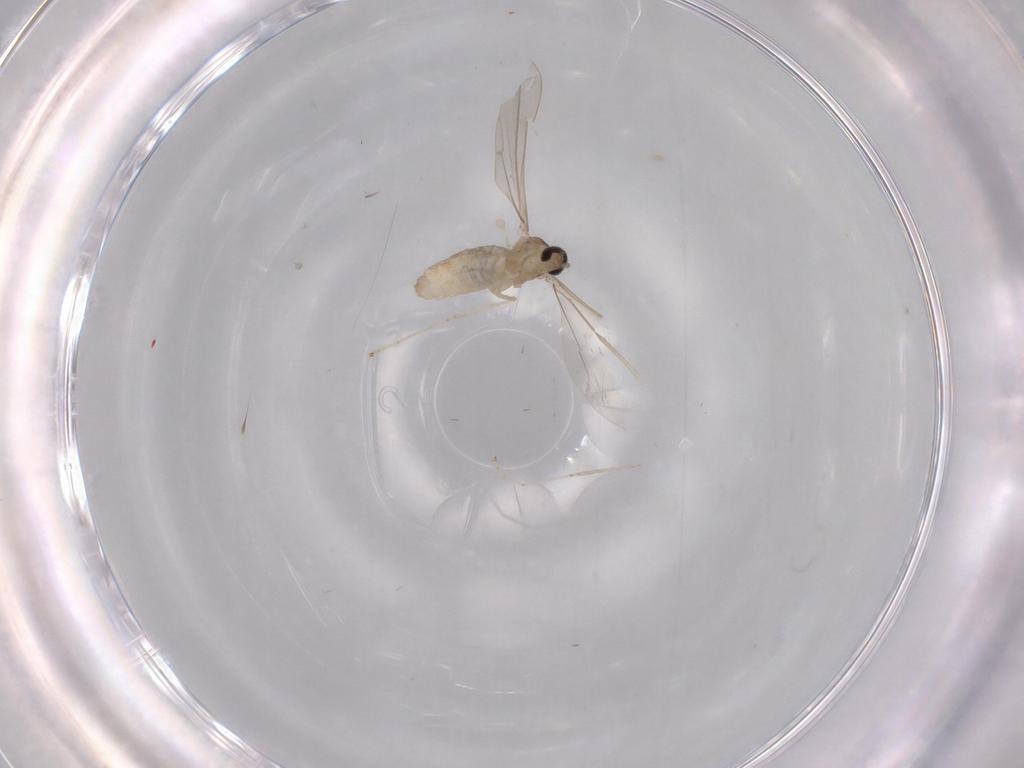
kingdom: Animalia
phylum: Arthropoda
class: Insecta
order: Diptera
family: Cecidomyiidae
